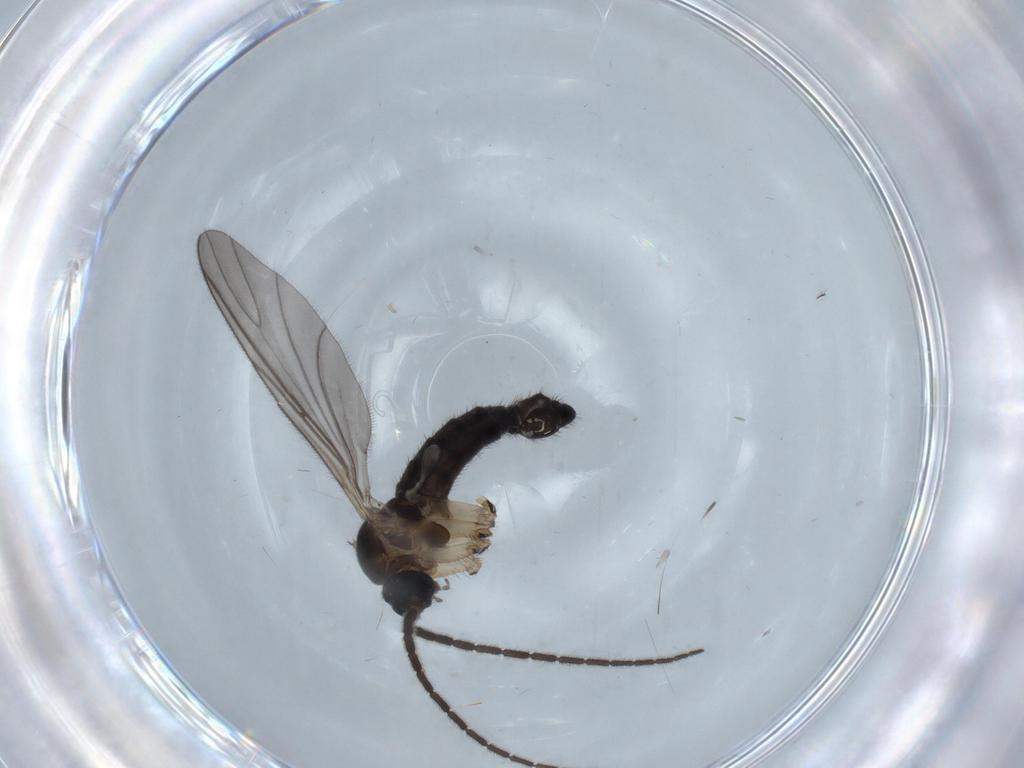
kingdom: Animalia
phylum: Arthropoda
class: Insecta
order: Diptera
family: Sciaridae
